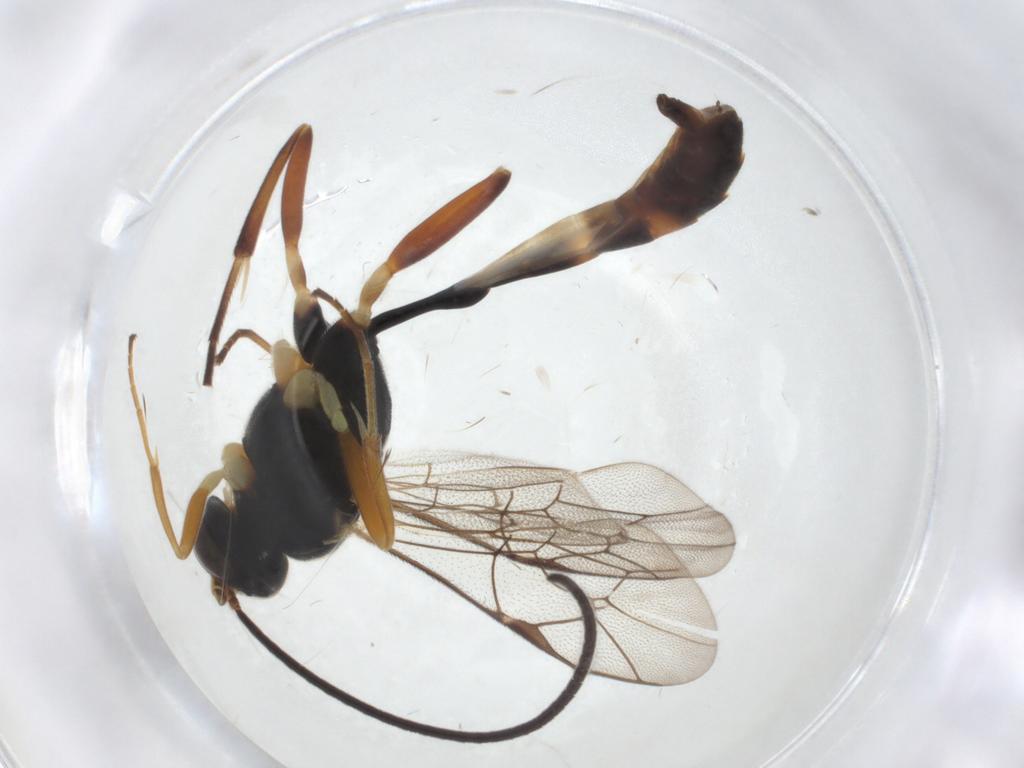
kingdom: Animalia
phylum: Arthropoda
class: Insecta
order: Hymenoptera
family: Ichneumonidae
